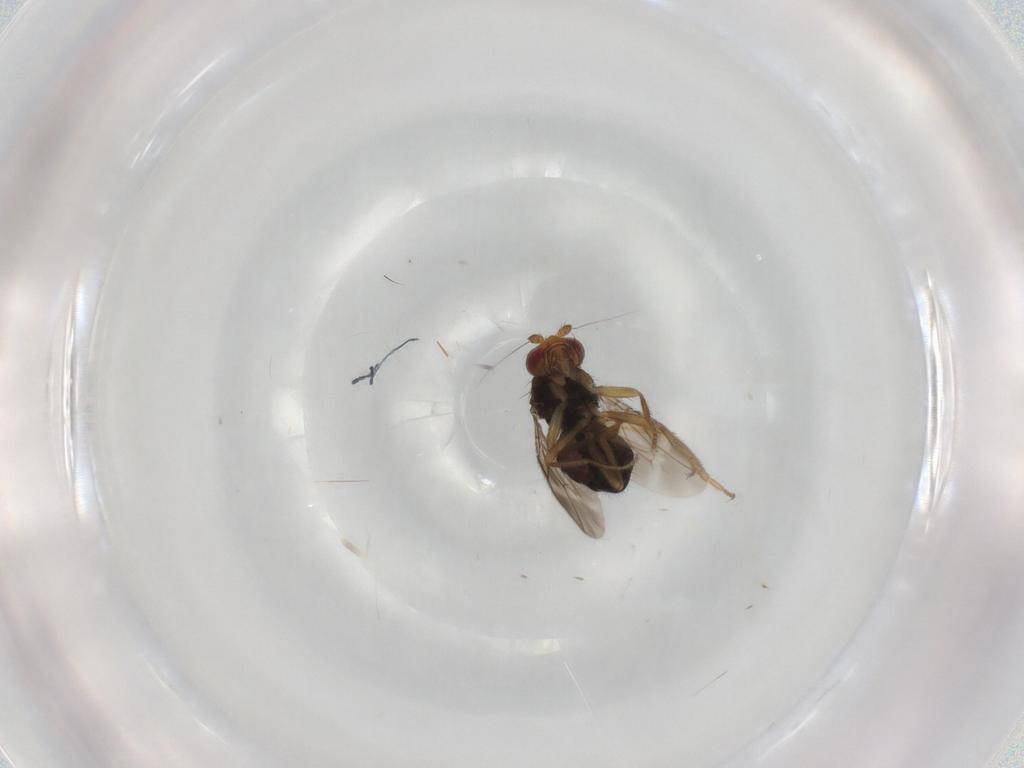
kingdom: Animalia
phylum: Arthropoda
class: Insecta
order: Diptera
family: Sphaeroceridae
